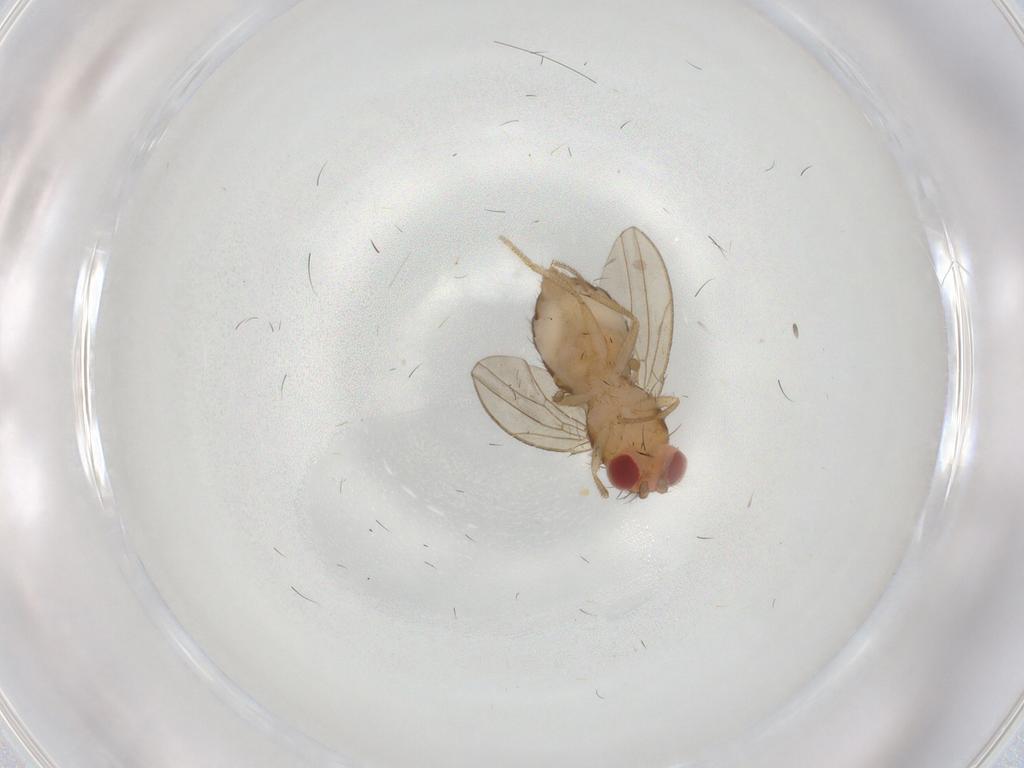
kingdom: Animalia
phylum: Arthropoda
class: Insecta
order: Diptera
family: Drosophilidae
